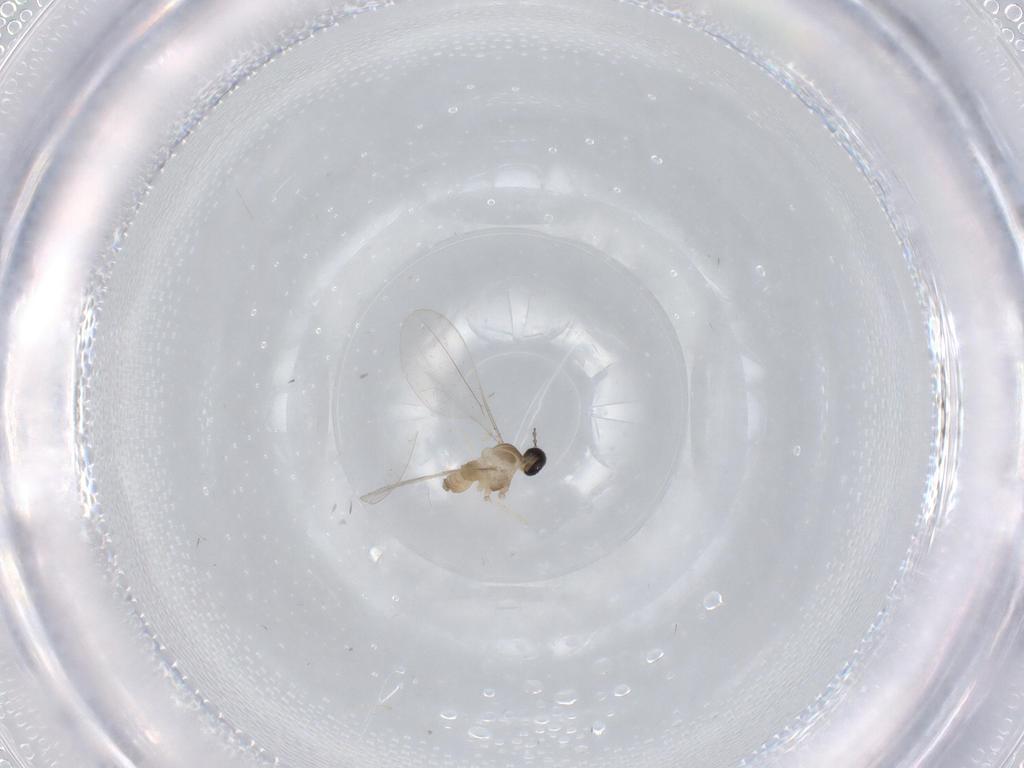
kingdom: Animalia
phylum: Arthropoda
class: Insecta
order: Diptera
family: Cecidomyiidae
